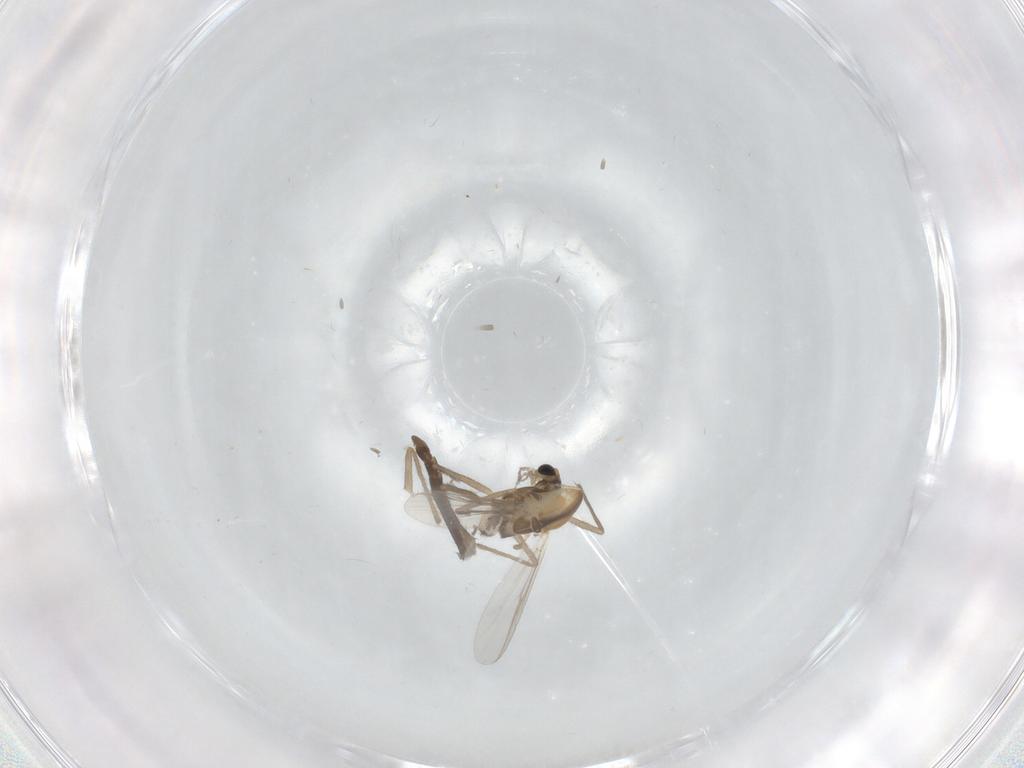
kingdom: Animalia
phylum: Arthropoda
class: Insecta
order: Diptera
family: Chironomidae
